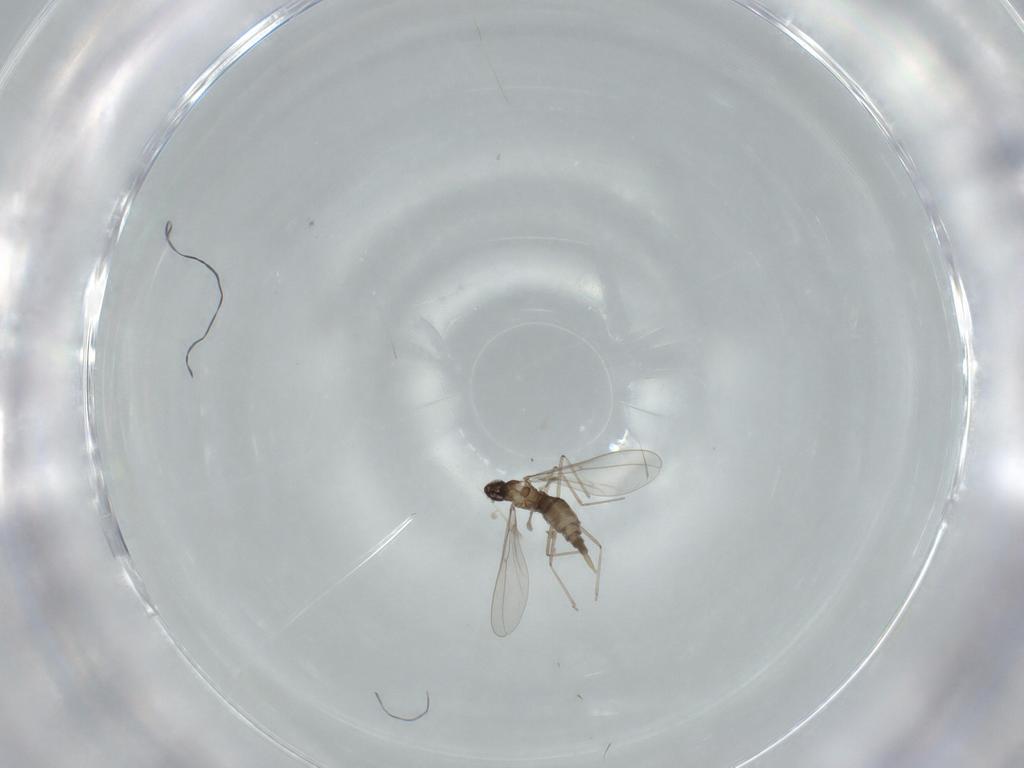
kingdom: Animalia
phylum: Arthropoda
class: Insecta
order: Diptera
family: Cecidomyiidae
